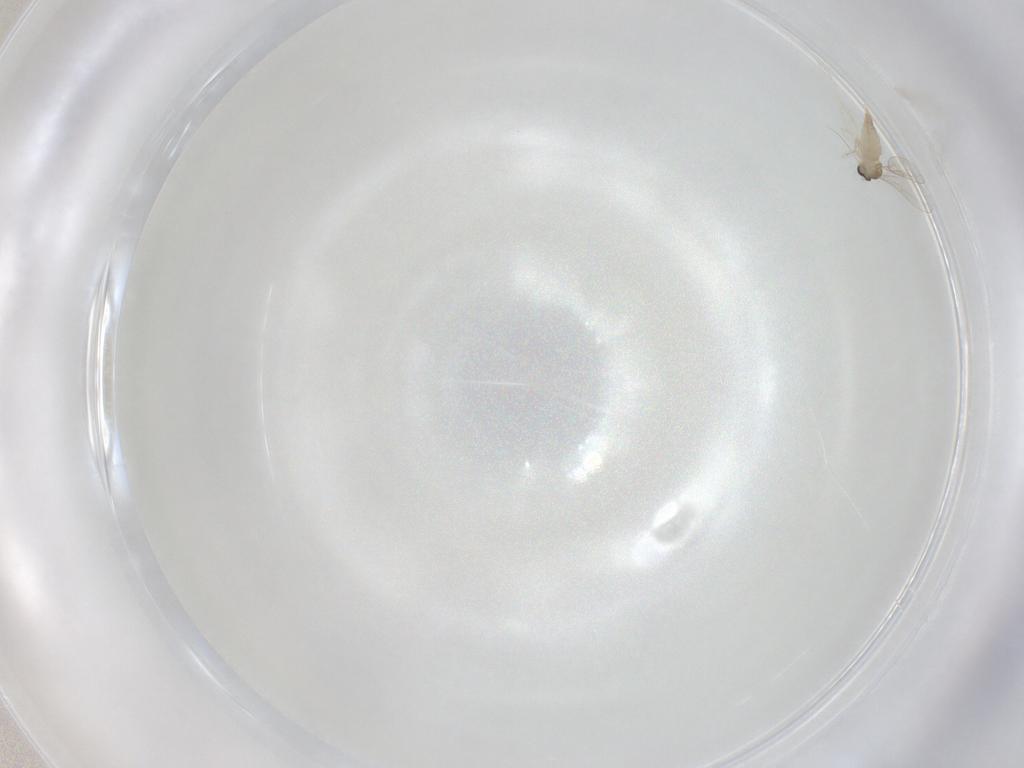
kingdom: Animalia
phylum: Arthropoda
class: Insecta
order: Diptera
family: Cecidomyiidae
